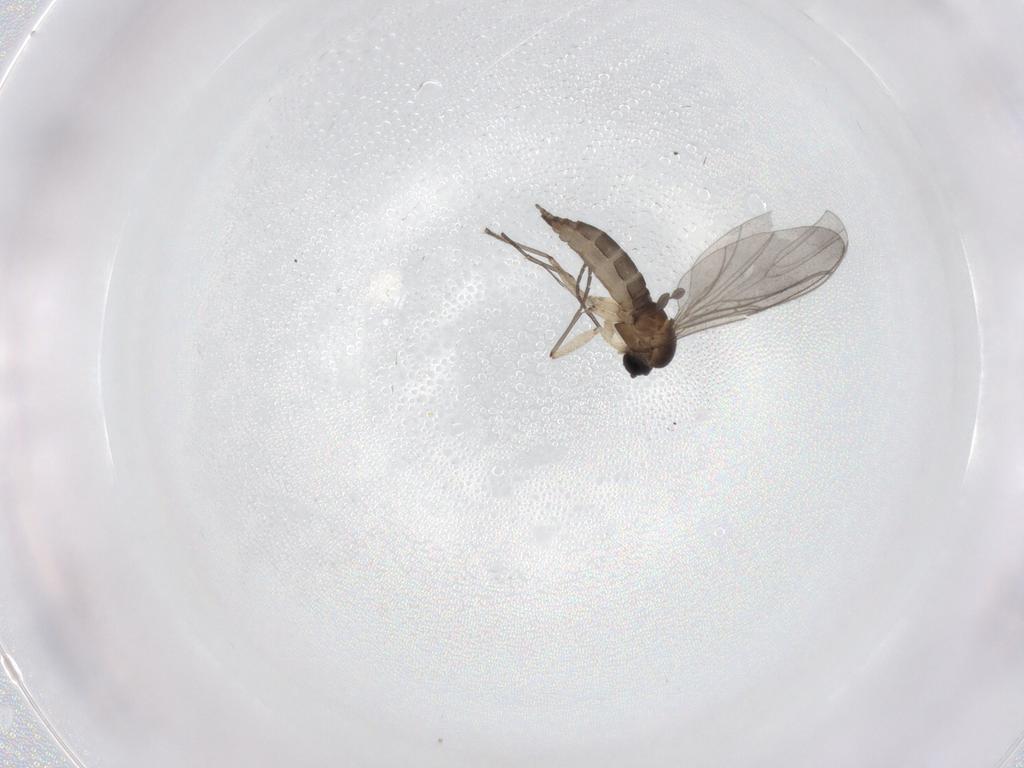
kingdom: Animalia
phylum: Arthropoda
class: Insecta
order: Diptera
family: Sciaridae
